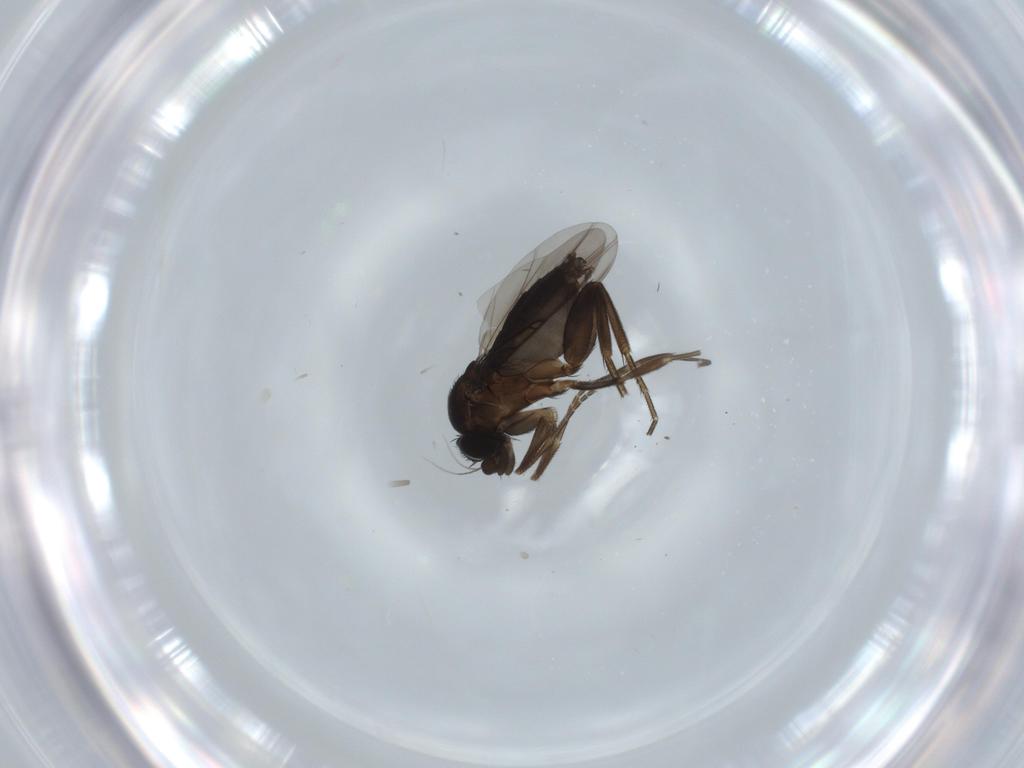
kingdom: Animalia
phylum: Arthropoda
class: Insecta
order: Diptera
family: Phoridae
